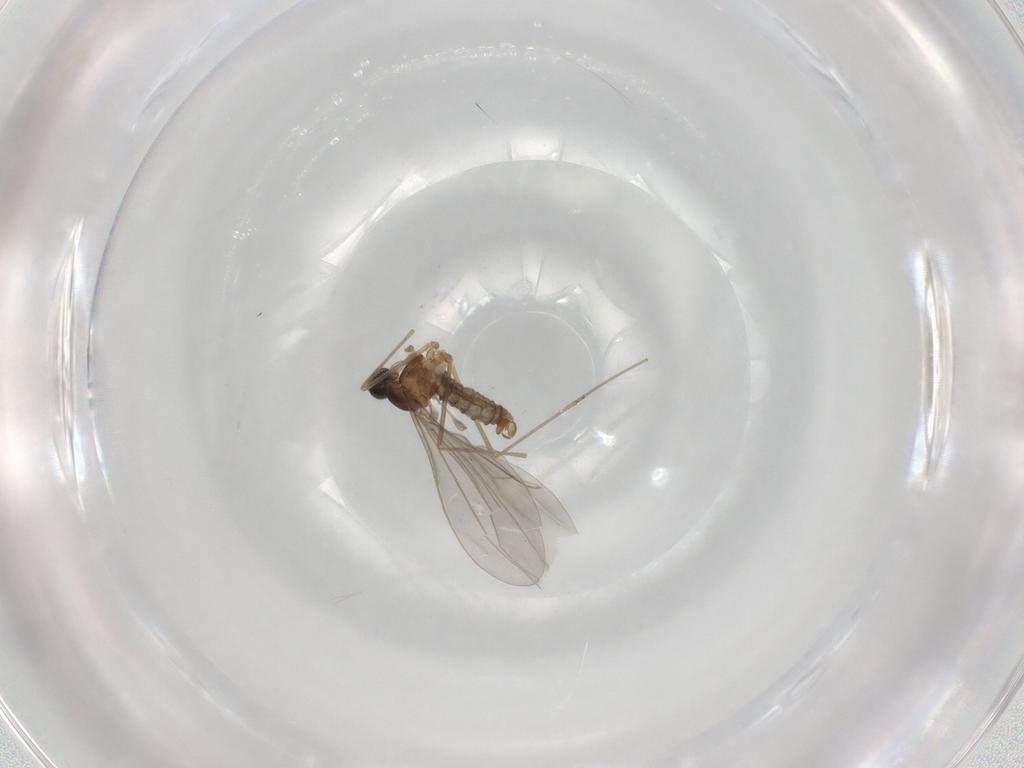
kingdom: Animalia
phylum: Arthropoda
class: Insecta
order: Diptera
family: Cecidomyiidae
